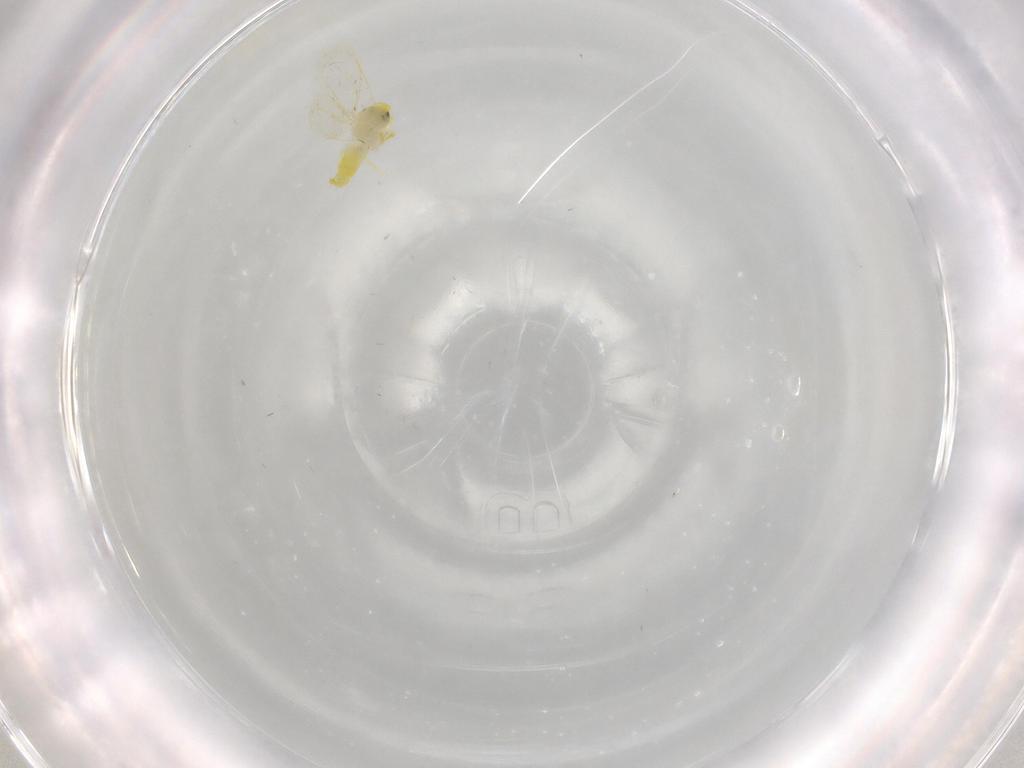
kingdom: Animalia
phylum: Arthropoda
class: Insecta
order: Hemiptera
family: Aleyrodidae
